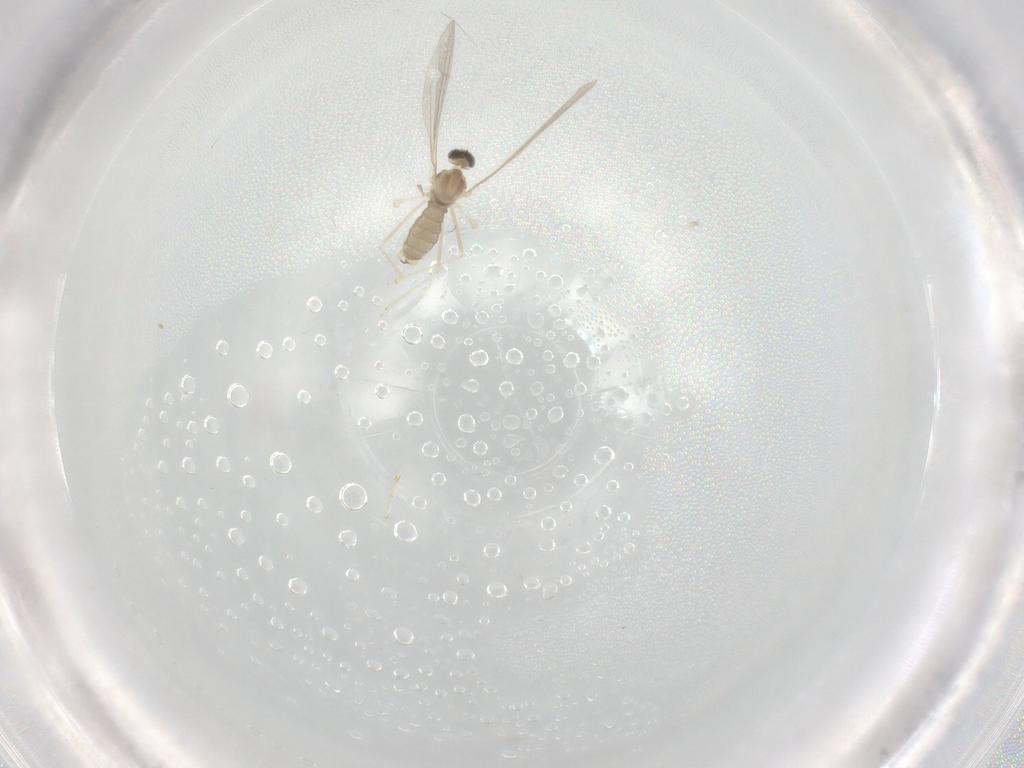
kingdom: Animalia
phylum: Arthropoda
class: Insecta
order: Diptera
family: Cecidomyiidae
